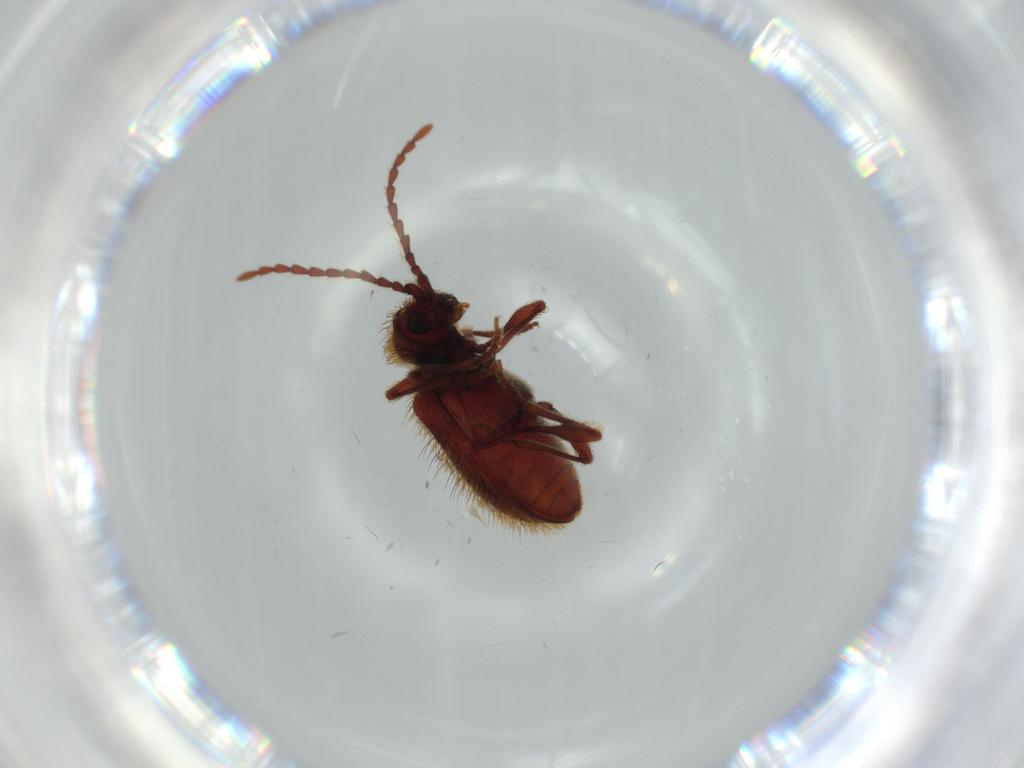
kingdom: Animalia
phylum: Arthropoda
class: Insecta
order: Coleoptera
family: Ptinidae
